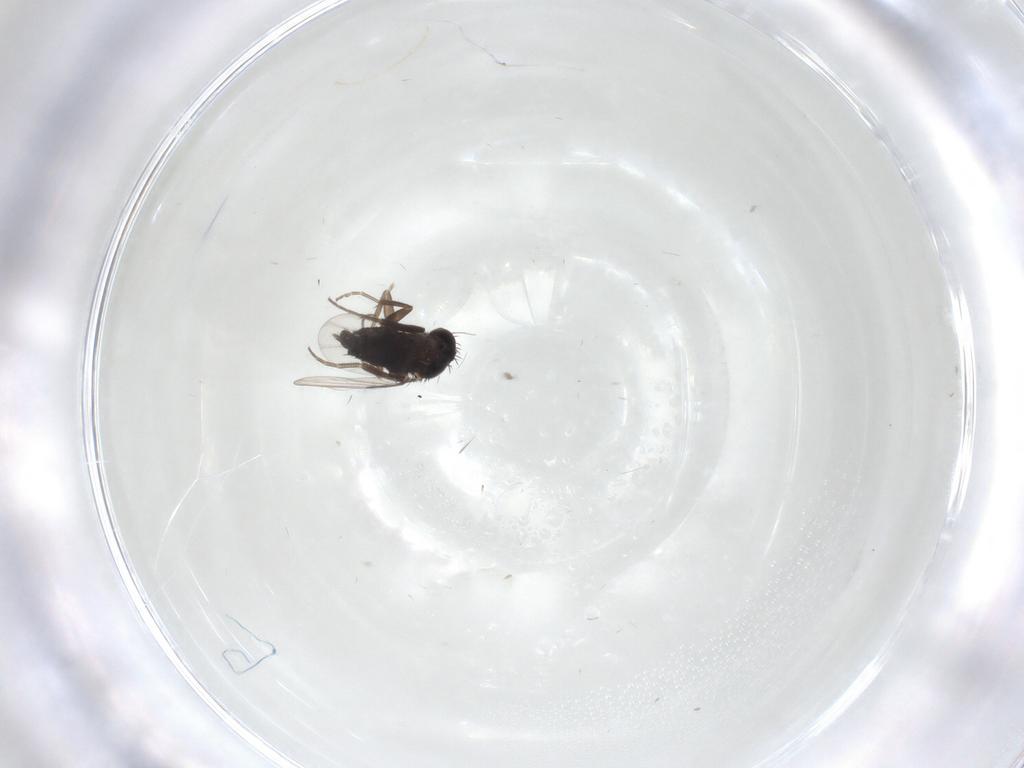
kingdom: Animalia
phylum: Arthropoda
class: Insecta
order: Diptera
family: Phoridae
